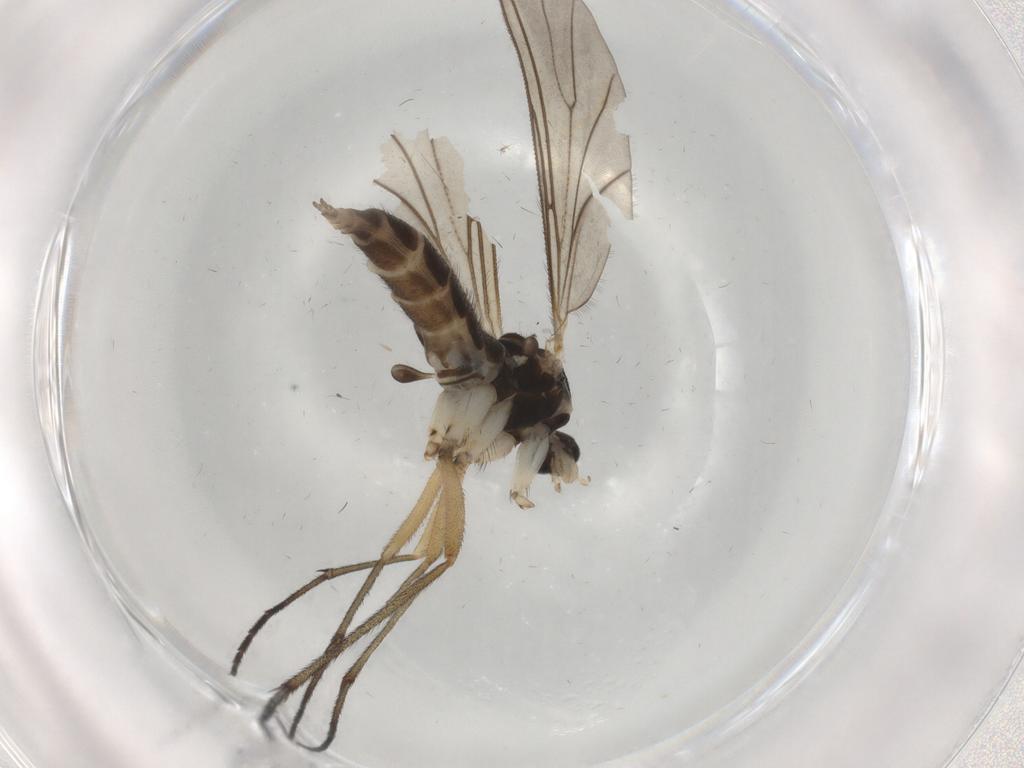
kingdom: Animalia
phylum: Arthropoda
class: Insecta
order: Diptera
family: Sciaridae
